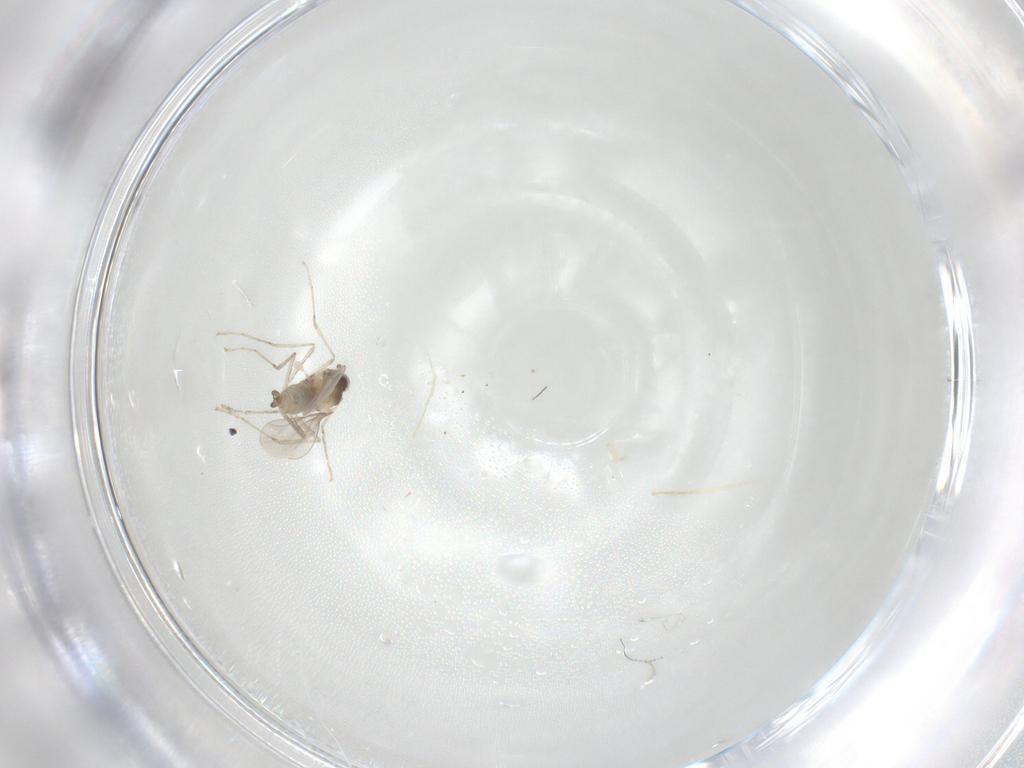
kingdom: Animalia
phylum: Arthropoda
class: Insecta
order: Diptera
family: Cecidomyiidae
